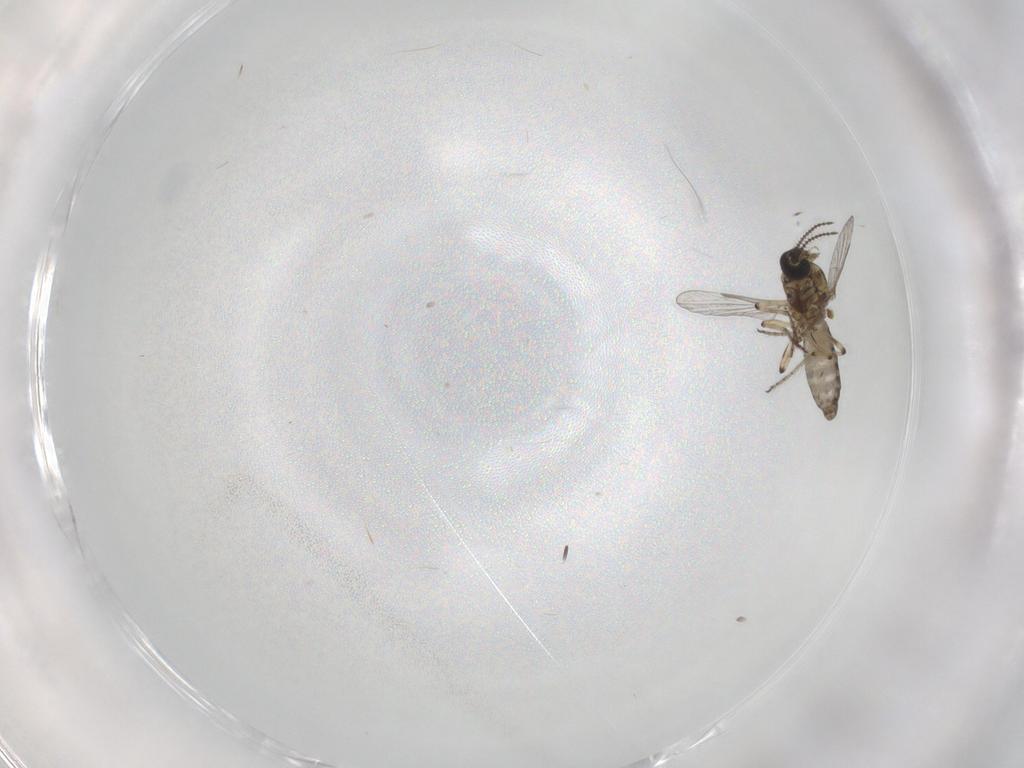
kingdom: Animalia
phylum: Arthropoda
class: Insecta
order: Diptera
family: Ceratopogonidae
